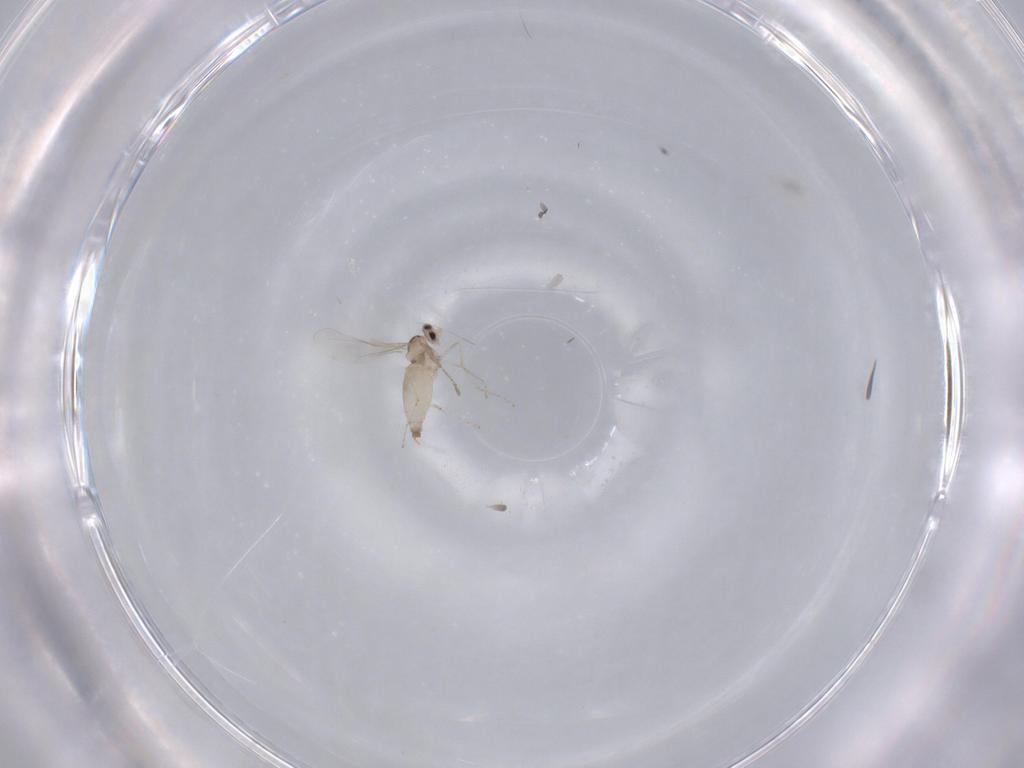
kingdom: Animalia
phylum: Arthropoda
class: Insecta
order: Diptera
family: Cecidomyiidae
